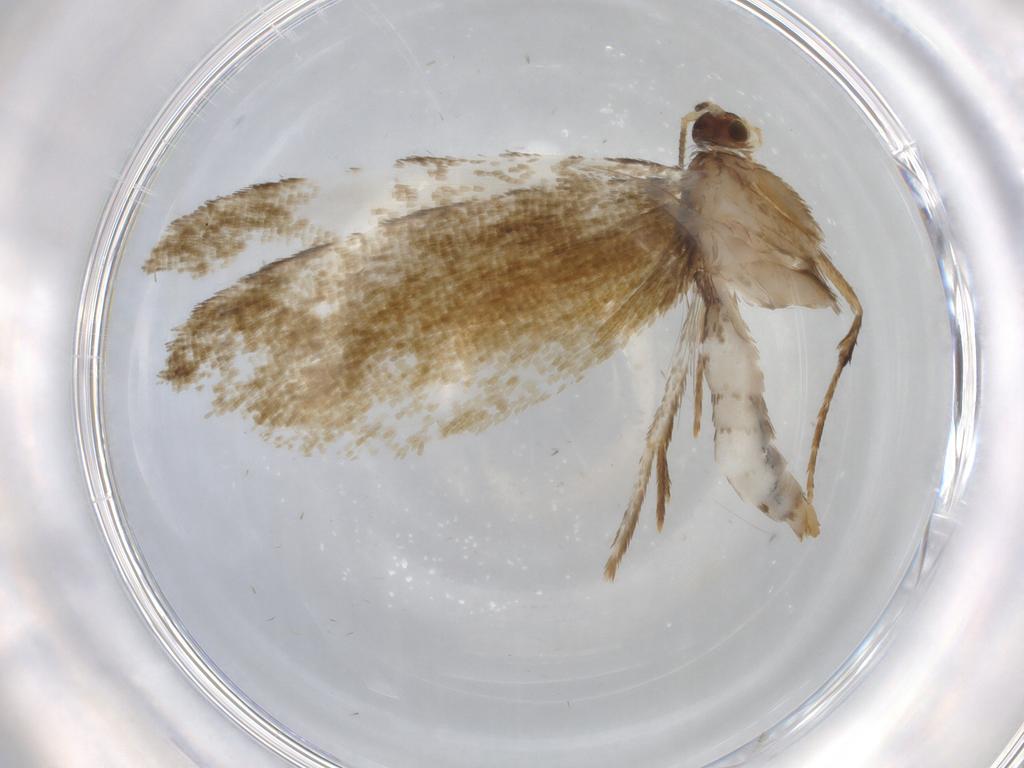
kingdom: Animalia
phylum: Arthropoda
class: Insecta
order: Lepidoptera
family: Tineidae
